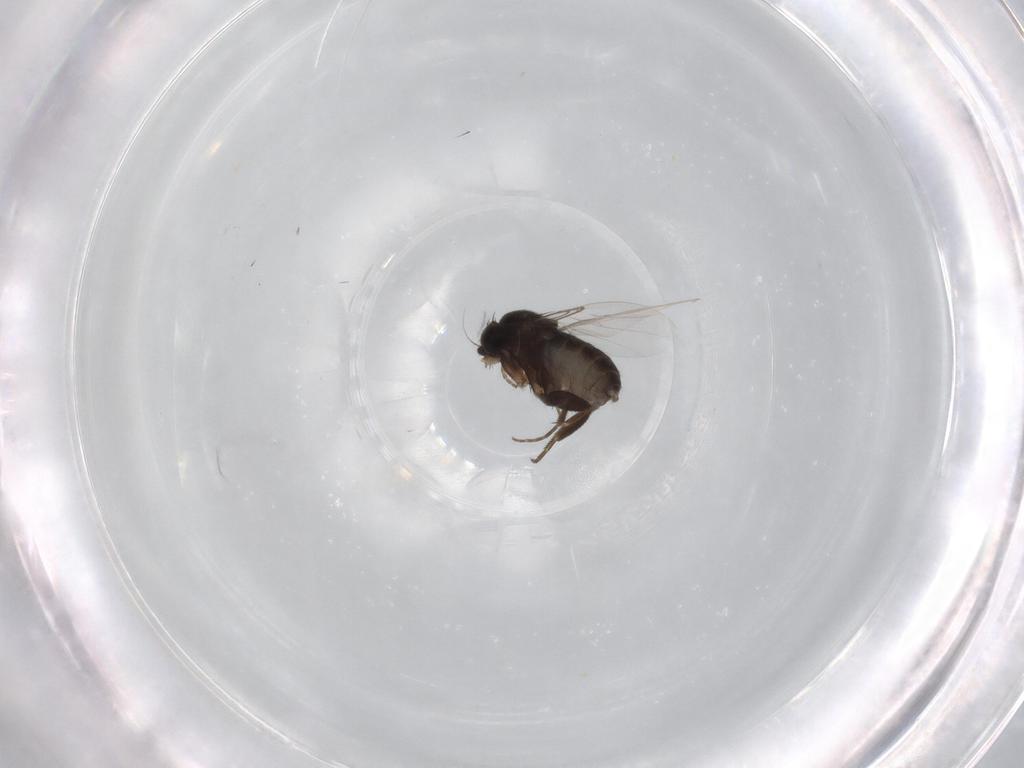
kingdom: Animalia
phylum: Arthropoda
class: Insecta
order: Diptera
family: Phoridae
